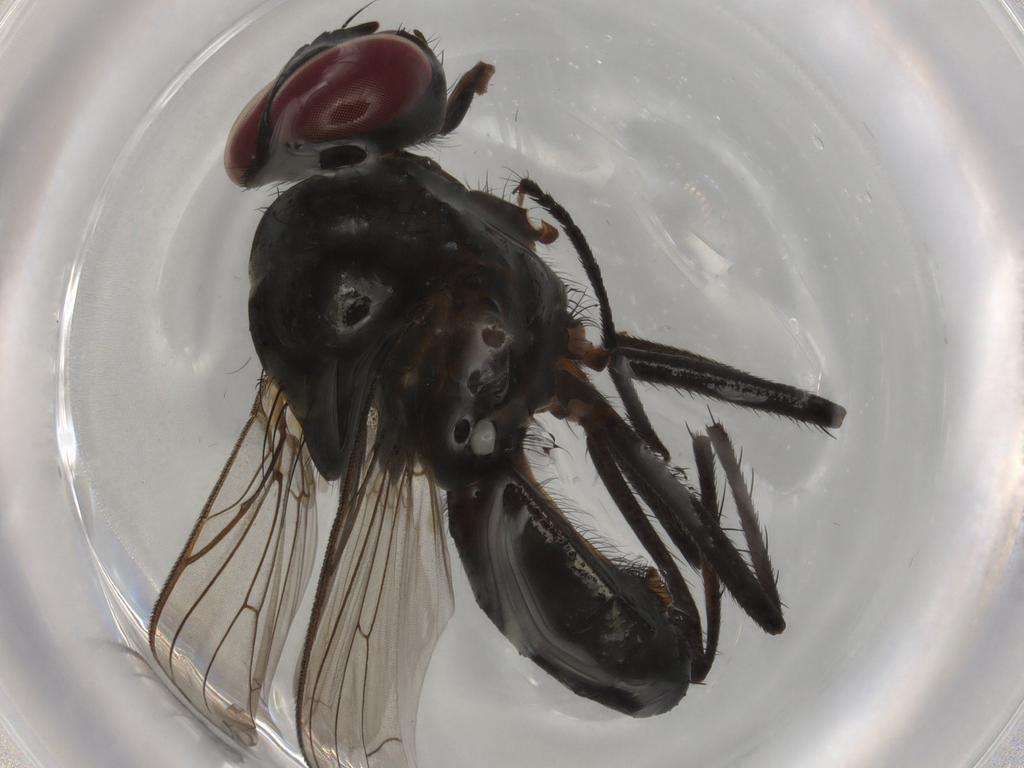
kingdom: Animalia
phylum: Arthropoda
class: Insecta
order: Diptera
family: Anthomyiidae
